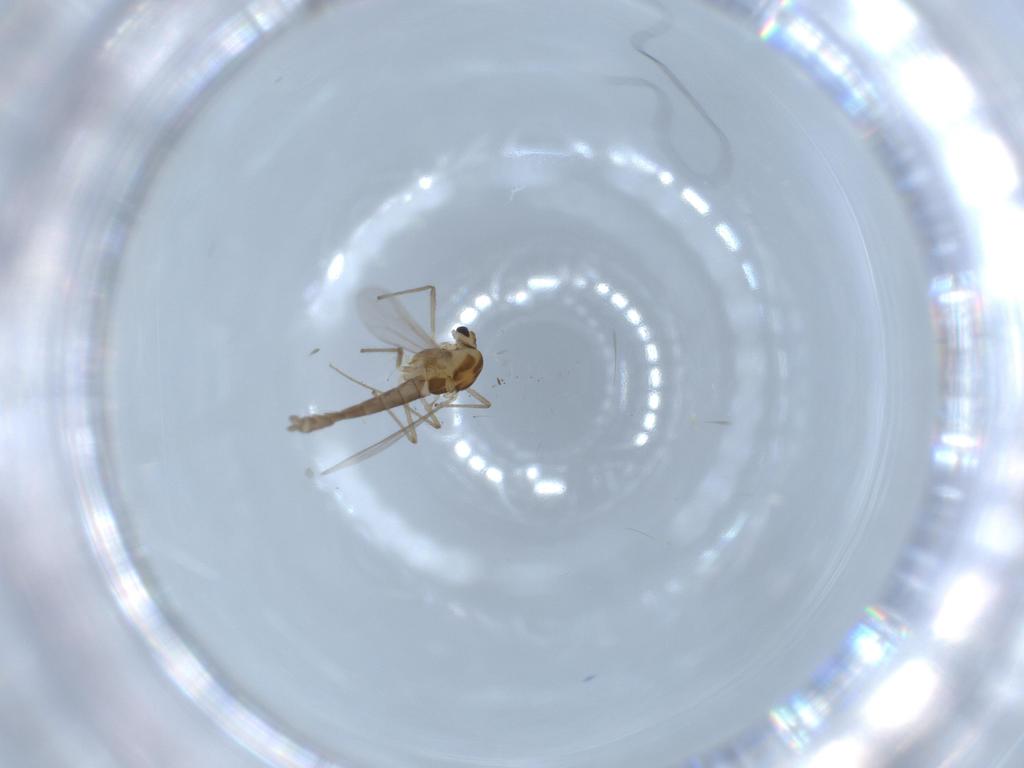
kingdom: Animalia
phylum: Arthropoda
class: Insecta
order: Diptera
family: Chironomidae
